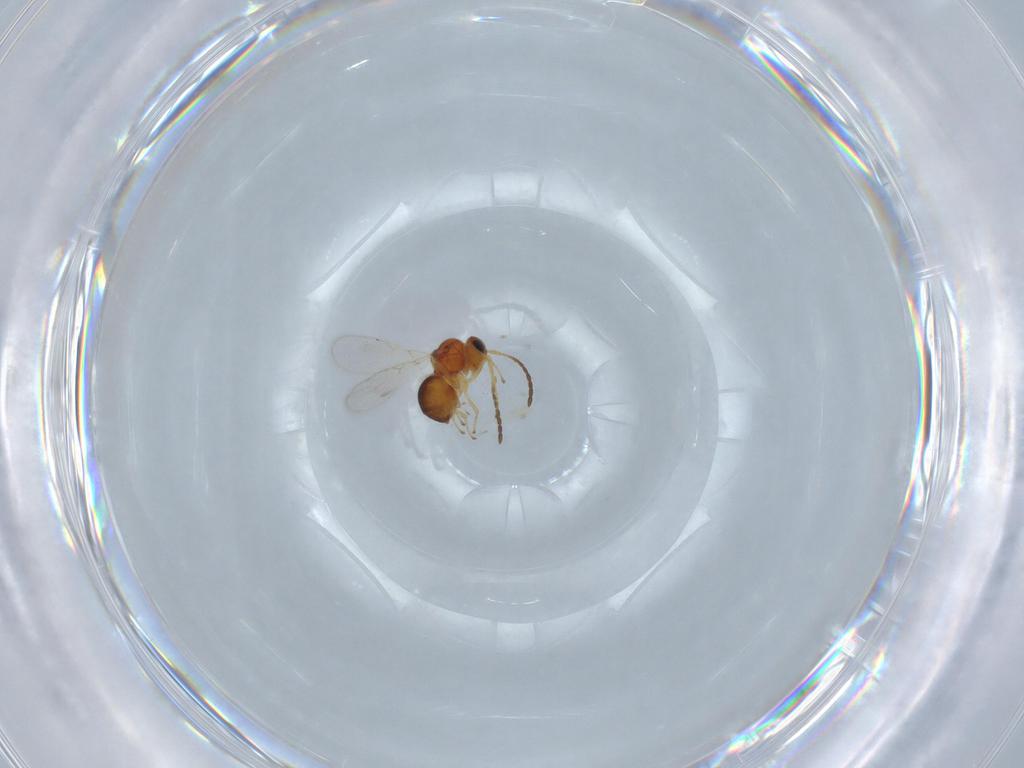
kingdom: Animalia
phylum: Arthropoda
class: Insecta
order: Hymenoptera
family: Figitidae
